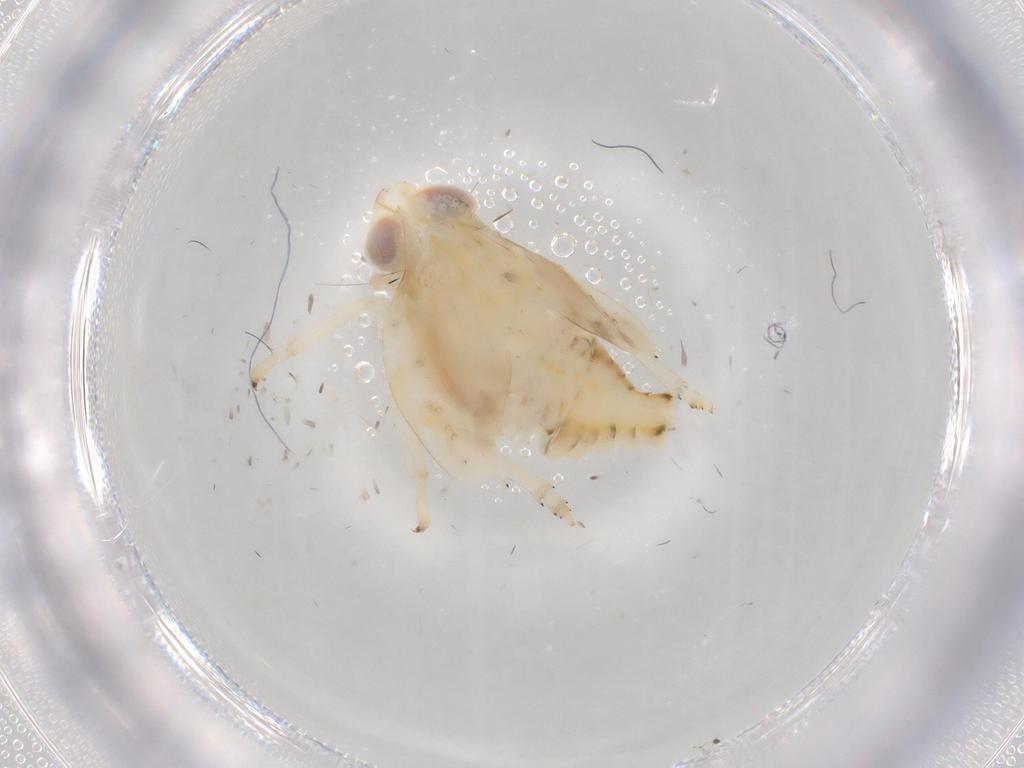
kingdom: Animalia
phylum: Arthropoda
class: Insecta
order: Hemiptera
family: Nogodinidae
